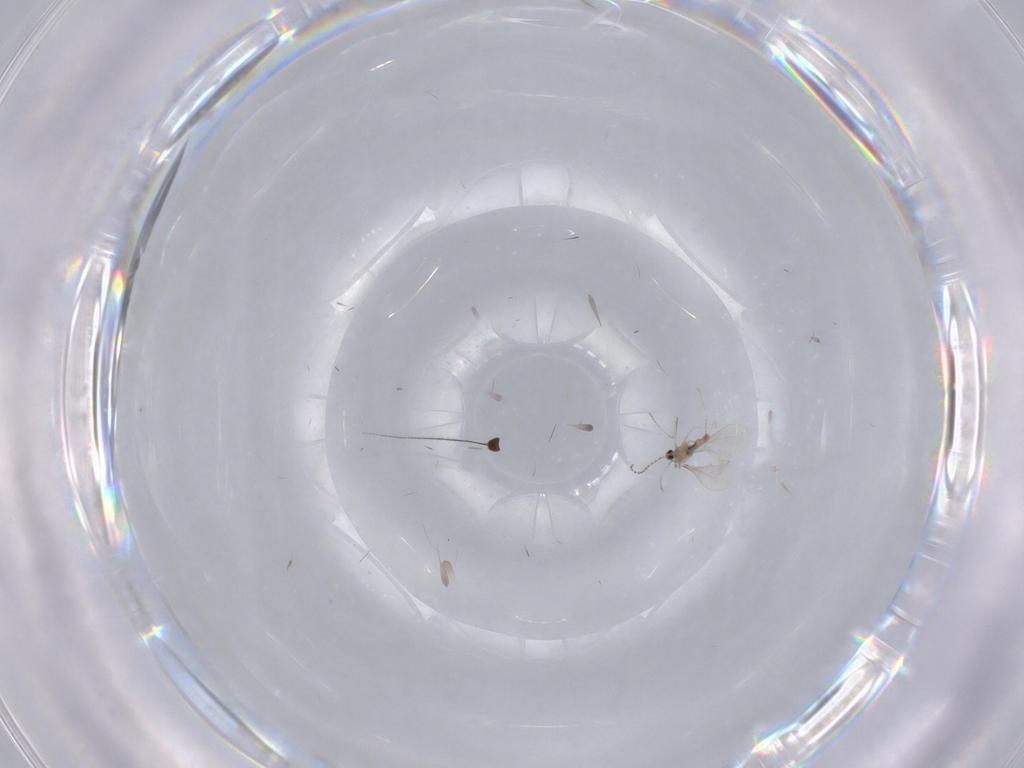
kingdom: Animalia
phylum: Arthropoda
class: Insecta
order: Diptera
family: Dolichopodidae
